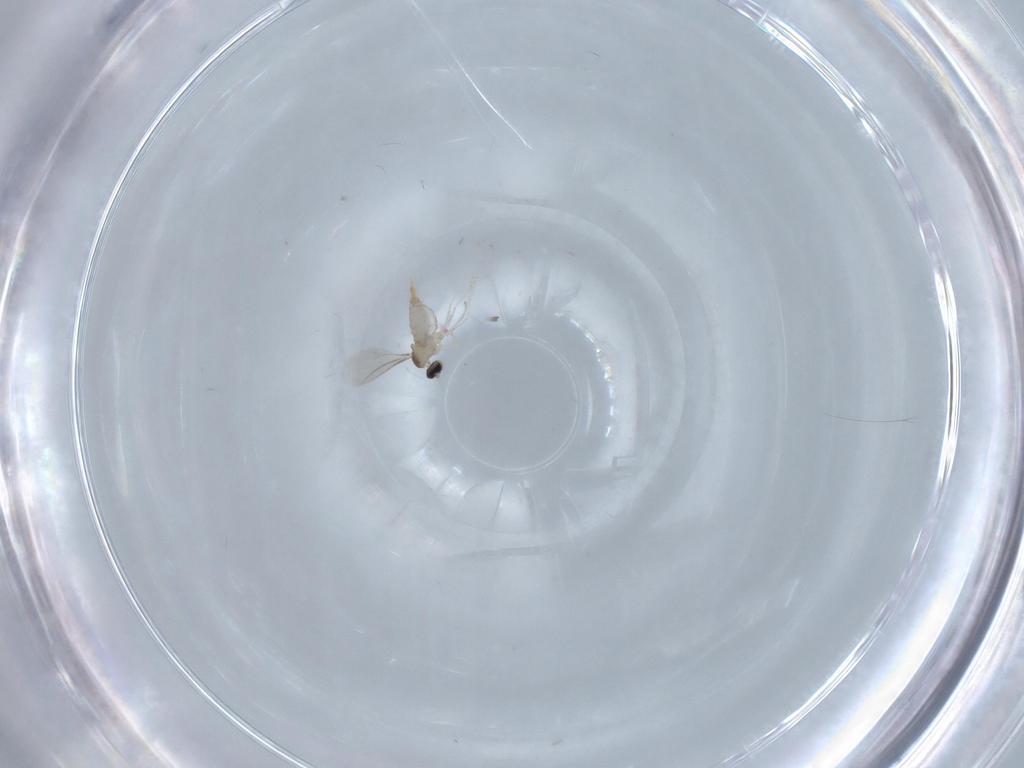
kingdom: Animalia
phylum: Arthropoda
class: Insecta
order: Diptera
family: Cecidomyiidae
